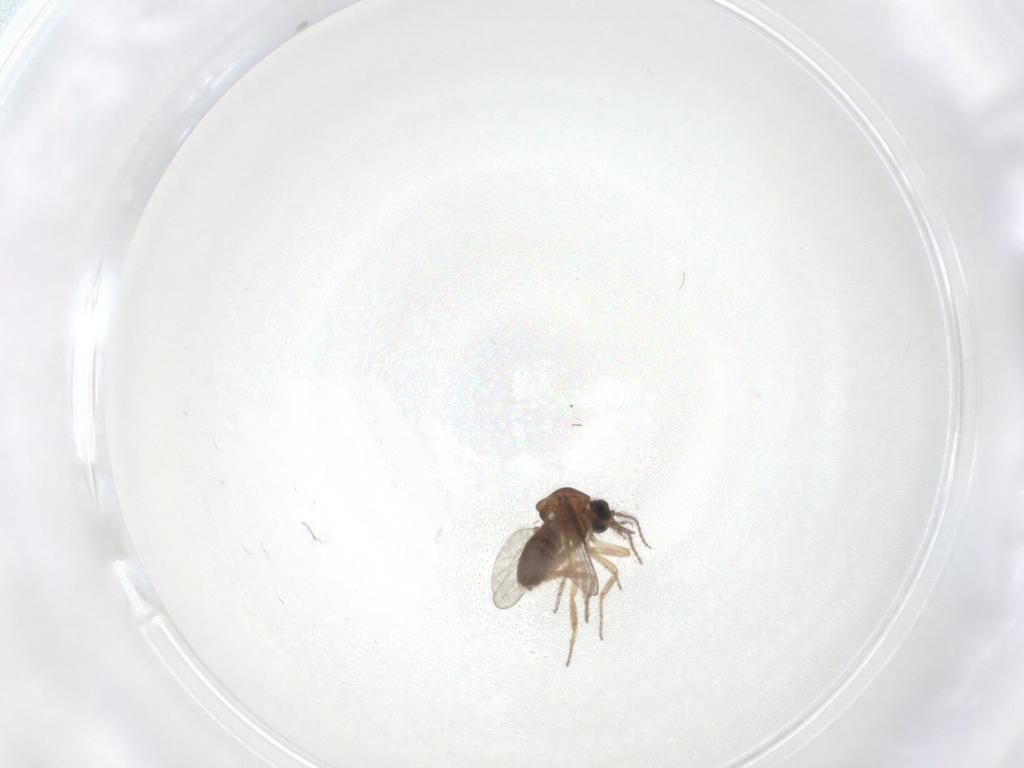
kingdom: Animalia
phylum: Arthropoda
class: Insecta
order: Diptera
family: Ceratopogonidae
